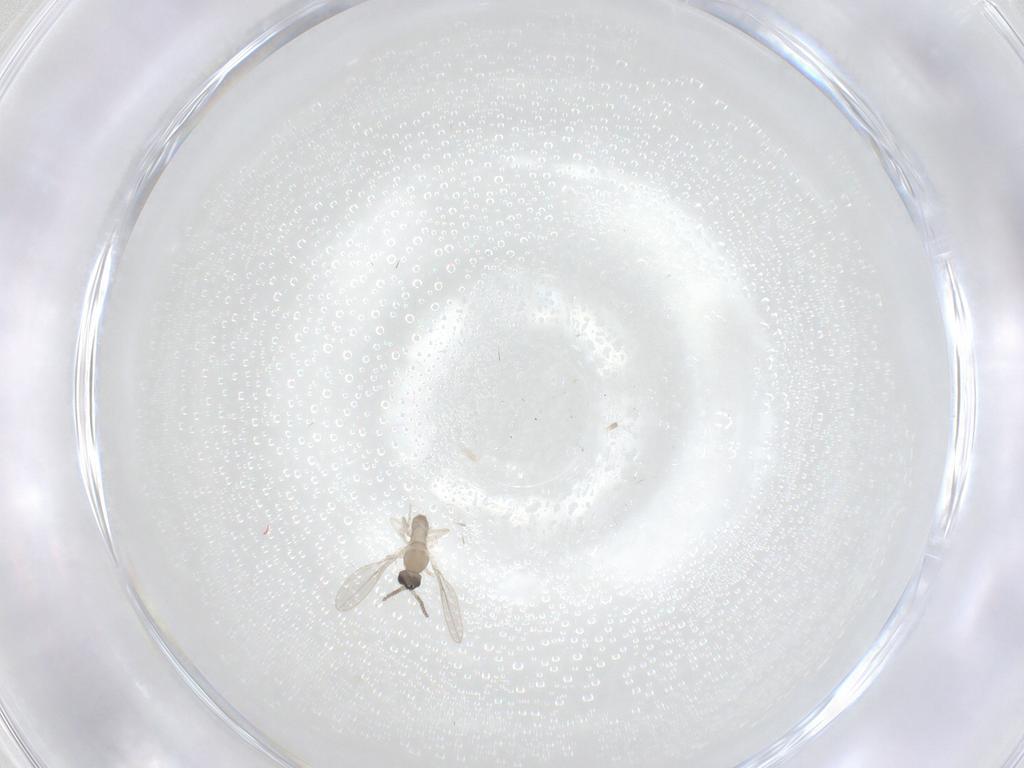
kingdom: Animalia
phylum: Arthropoda
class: Insecta
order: Diptera
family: Cecidomyiidae
